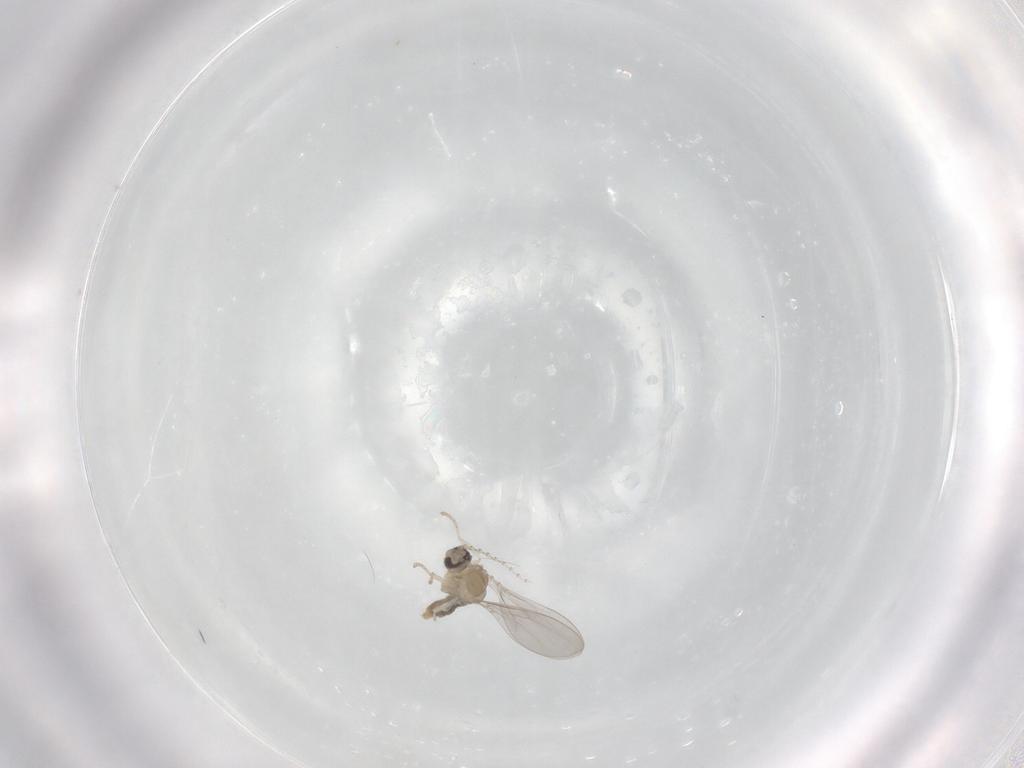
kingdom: Animalia
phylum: Arthropoda
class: Insecta
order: Diptera
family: Cecidomyiidae
